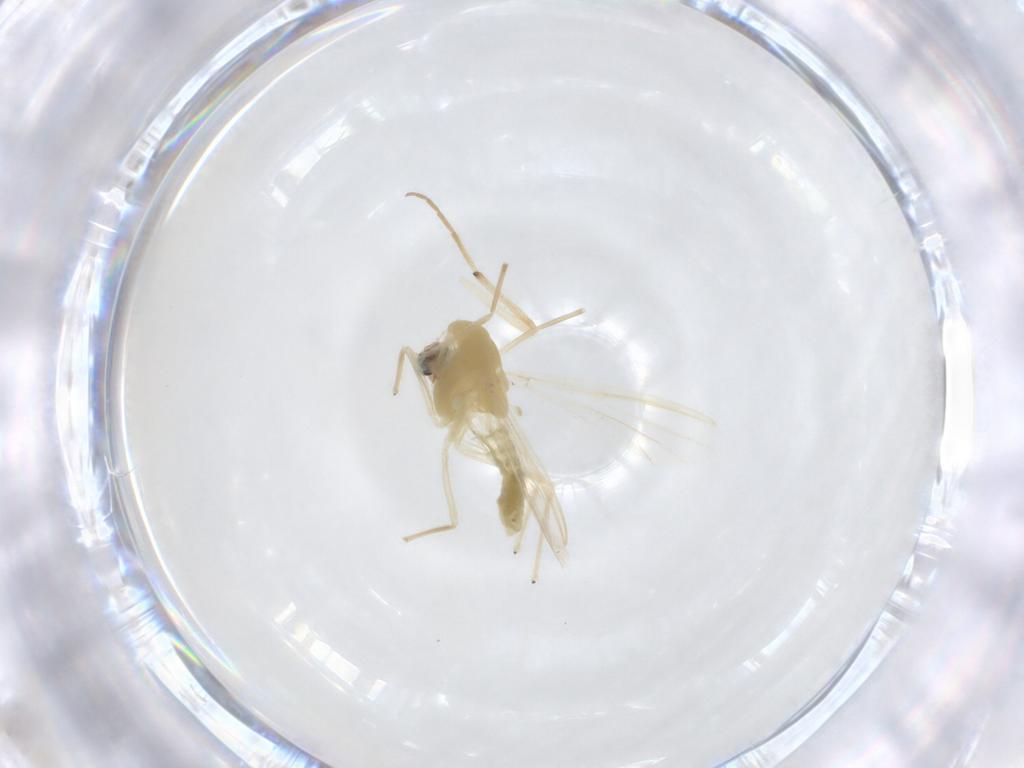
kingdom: Animalia
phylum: Arthropoda
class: Insecta
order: Diptera
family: Chironomidae
